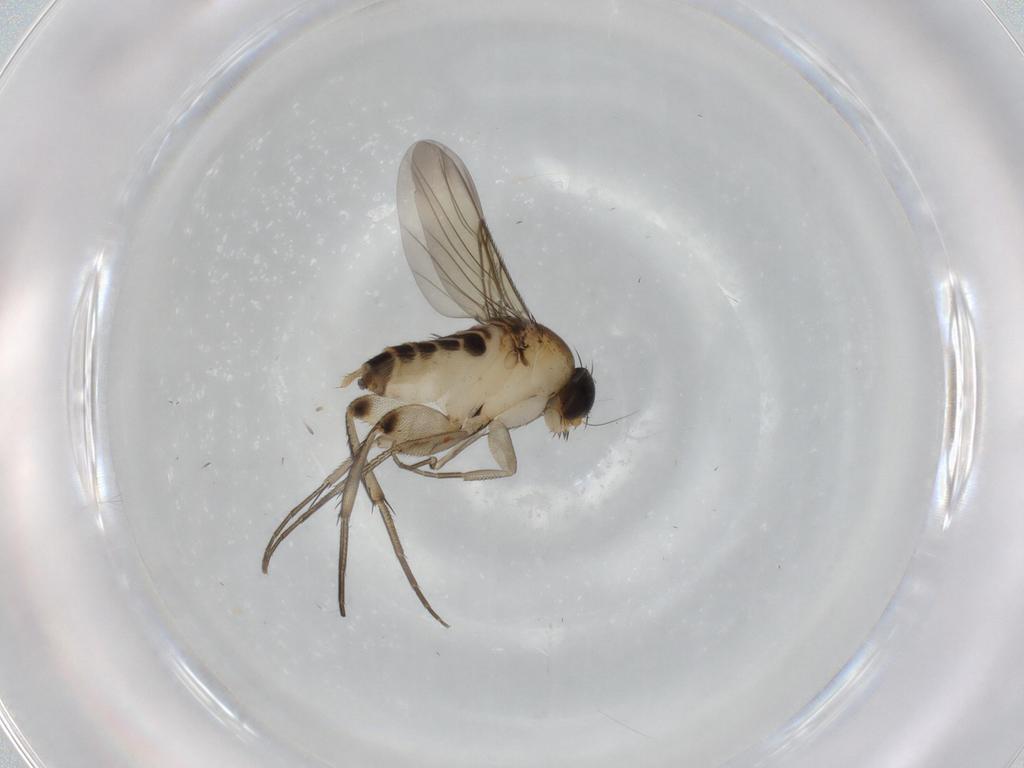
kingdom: Animalia
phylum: Arthropoda
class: Insecta
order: Diptera
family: Phoridae
